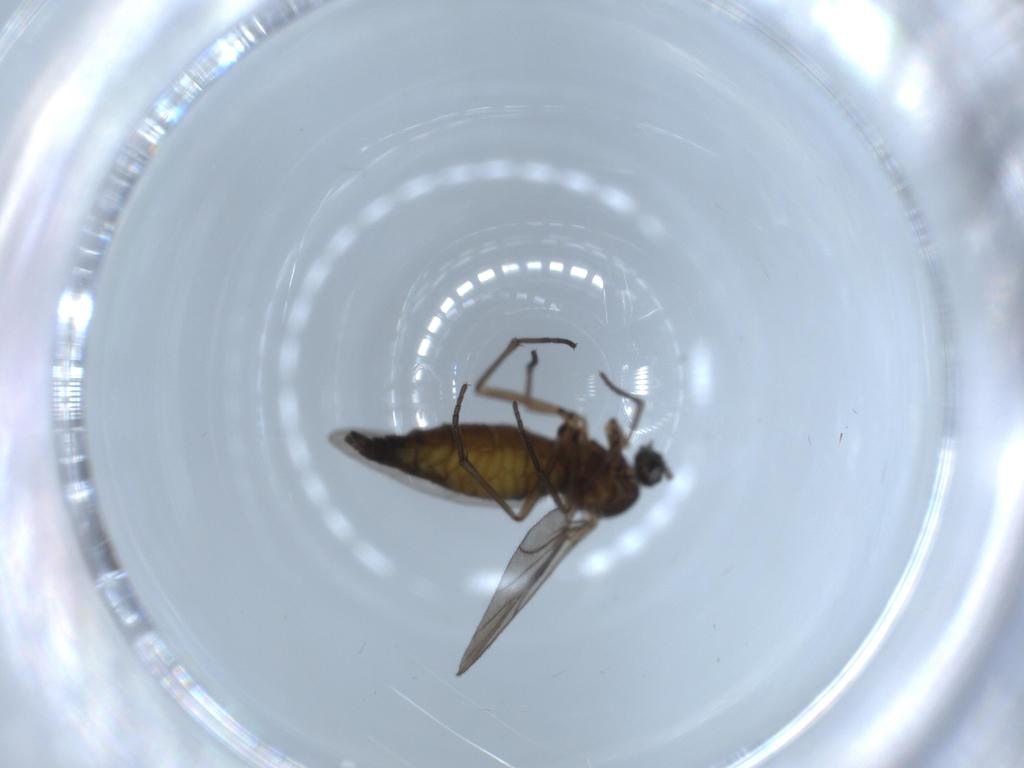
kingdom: Animalia
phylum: Arthropoda
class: Insecta
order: Diptera
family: Sciaridae
